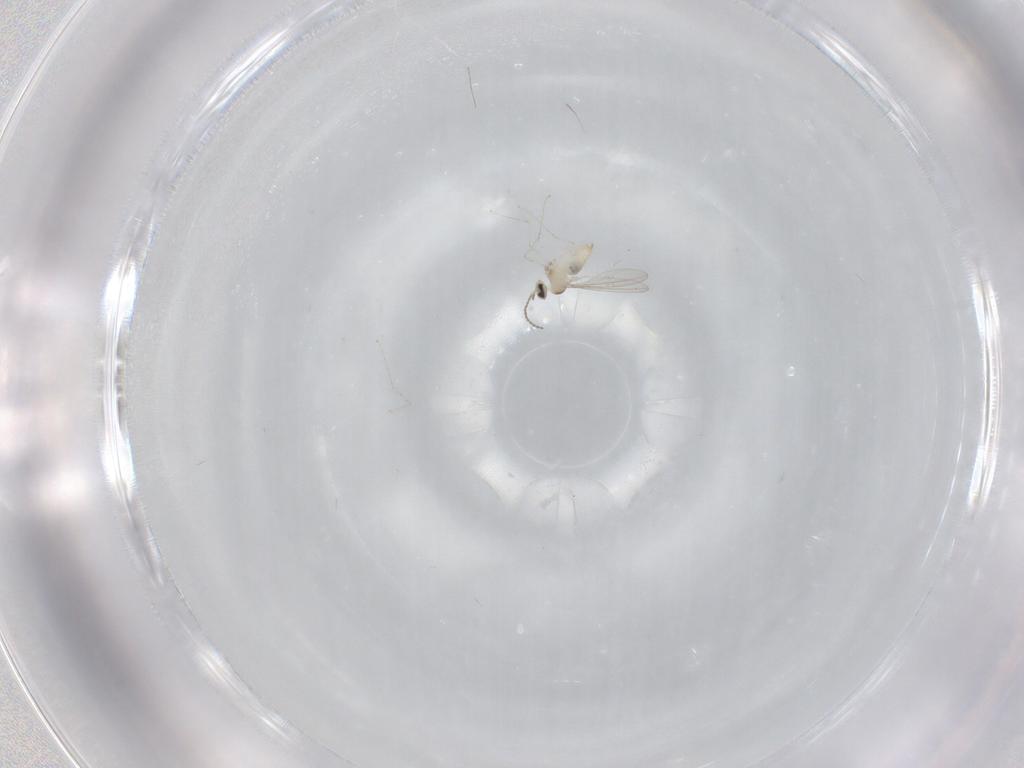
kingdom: Animalia
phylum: Arthropoda
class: Insecta
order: Diptera
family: Cecidomyiidae
